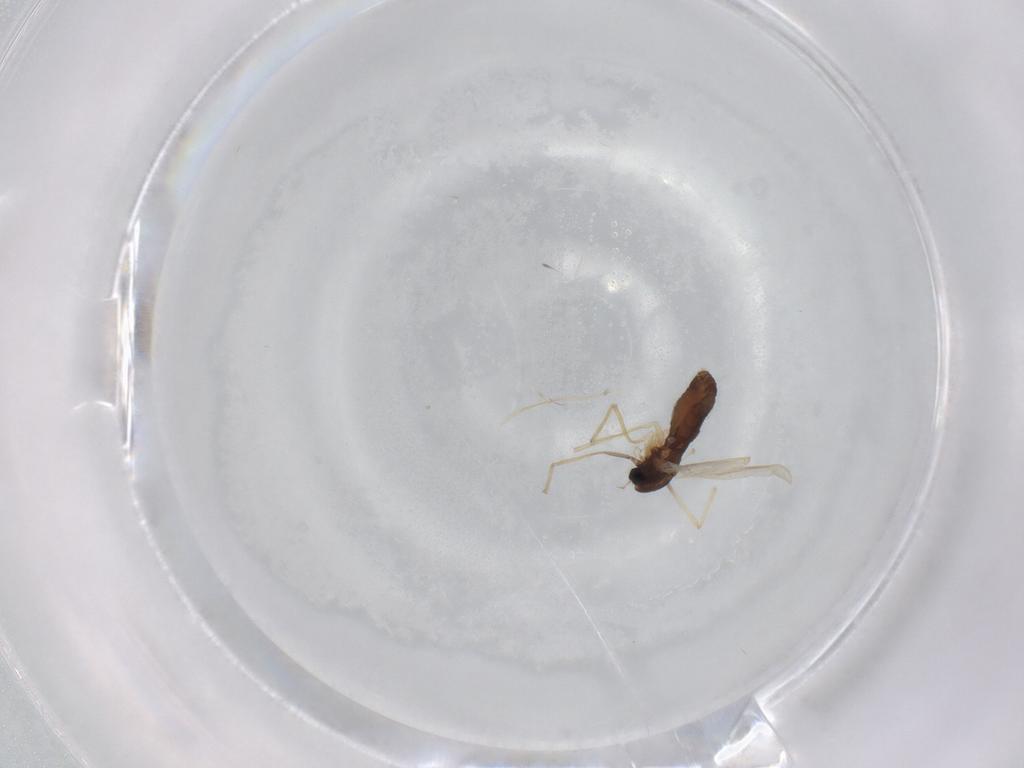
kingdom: Animalia
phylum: Arthropoda
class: Insecta
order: Diptera
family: Chironomidae
